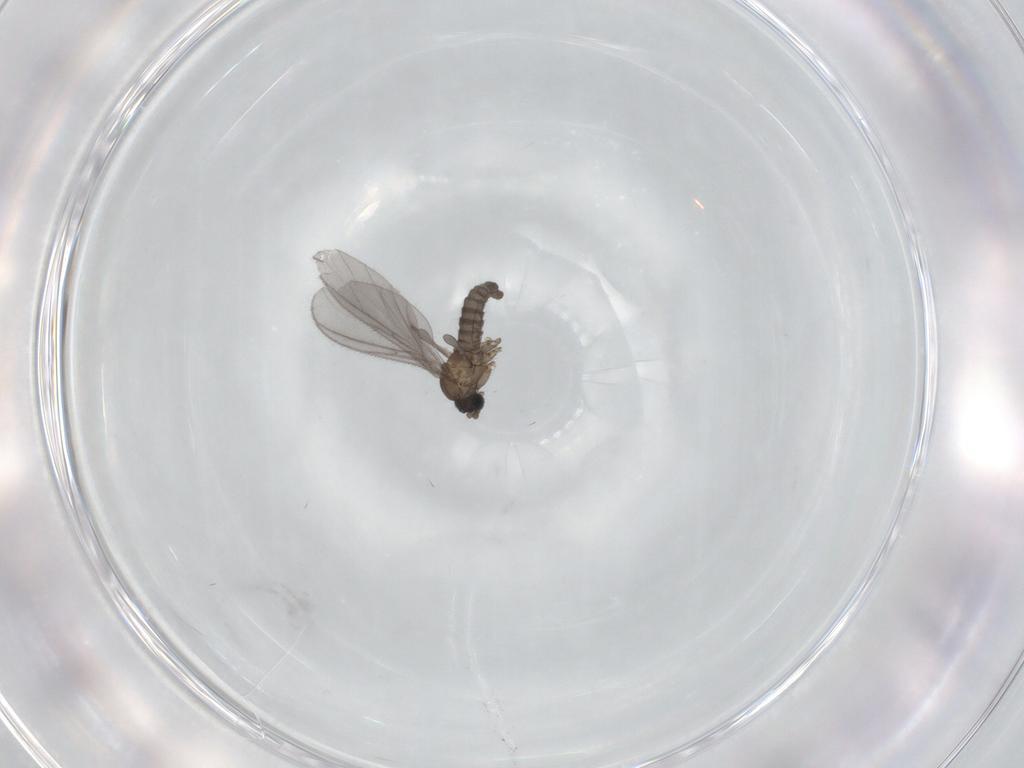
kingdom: Animalia
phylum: Arthropoda
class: Insecta
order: Diptera
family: Sciaridae
